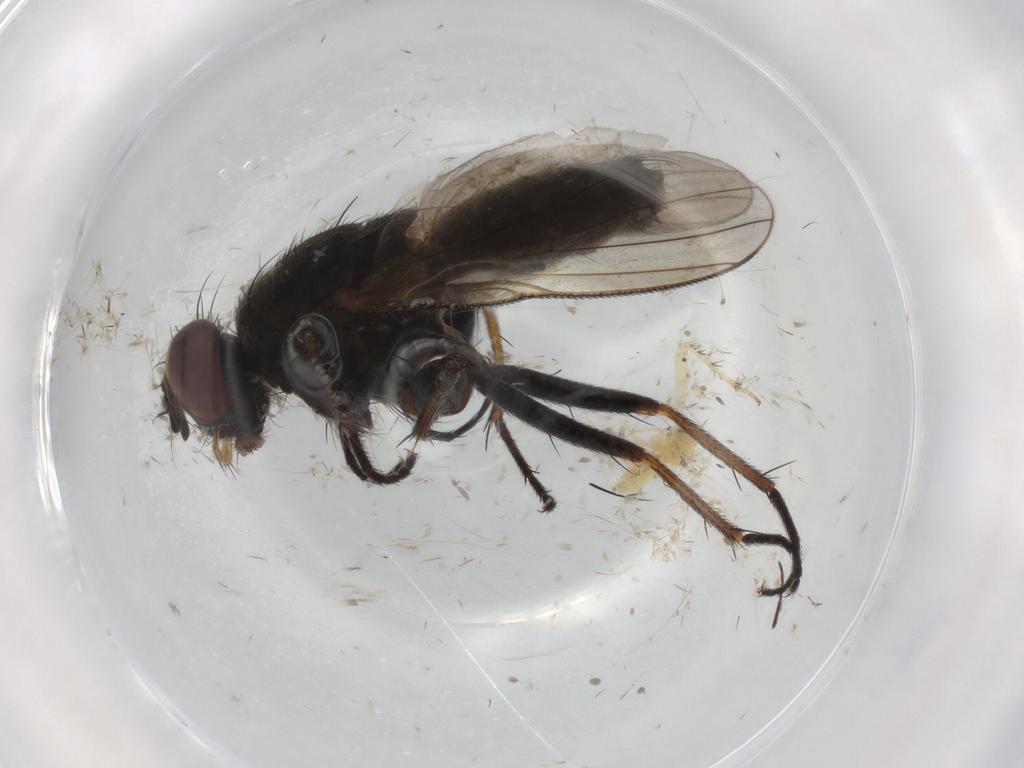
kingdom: Animalia
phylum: Arthropoda
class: Insecta
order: Diptera
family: Muscidae
